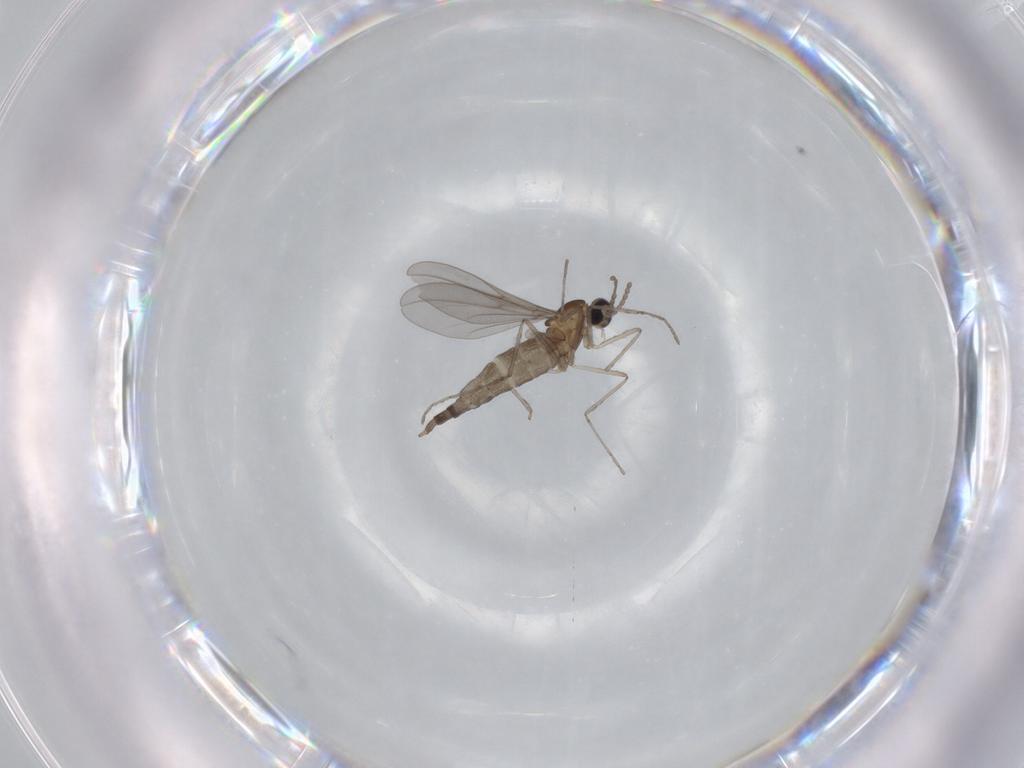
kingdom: Animalia
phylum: Arthropoda
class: Insecta
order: Diptera
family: Cecidomyiidae
